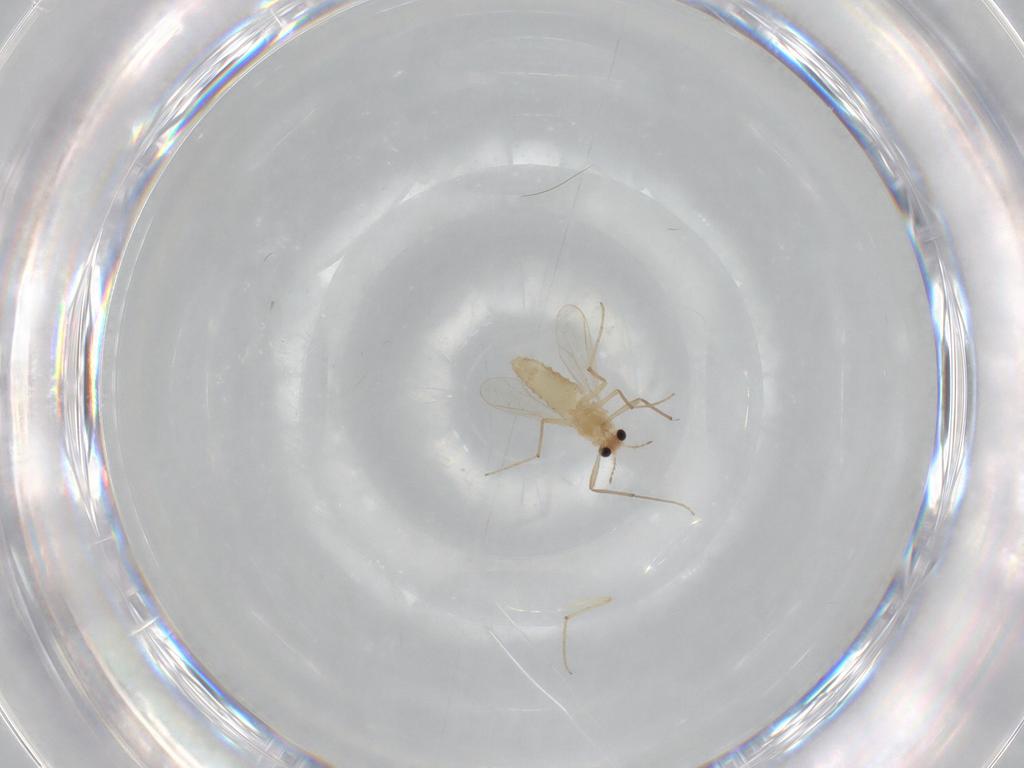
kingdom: Animalia
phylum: Arthropoda
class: Insecta
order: Diptera
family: Chironomidae
